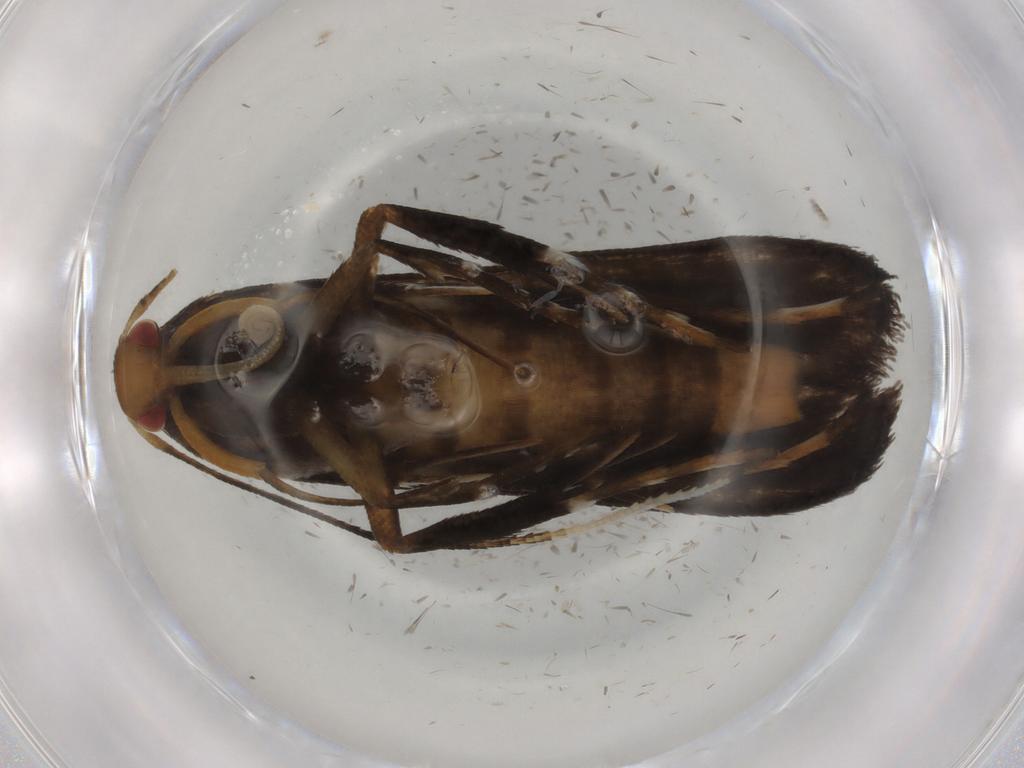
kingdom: Animalia
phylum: Arthropoda
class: Insecta
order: Lepidoptera
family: Gelechiidae
